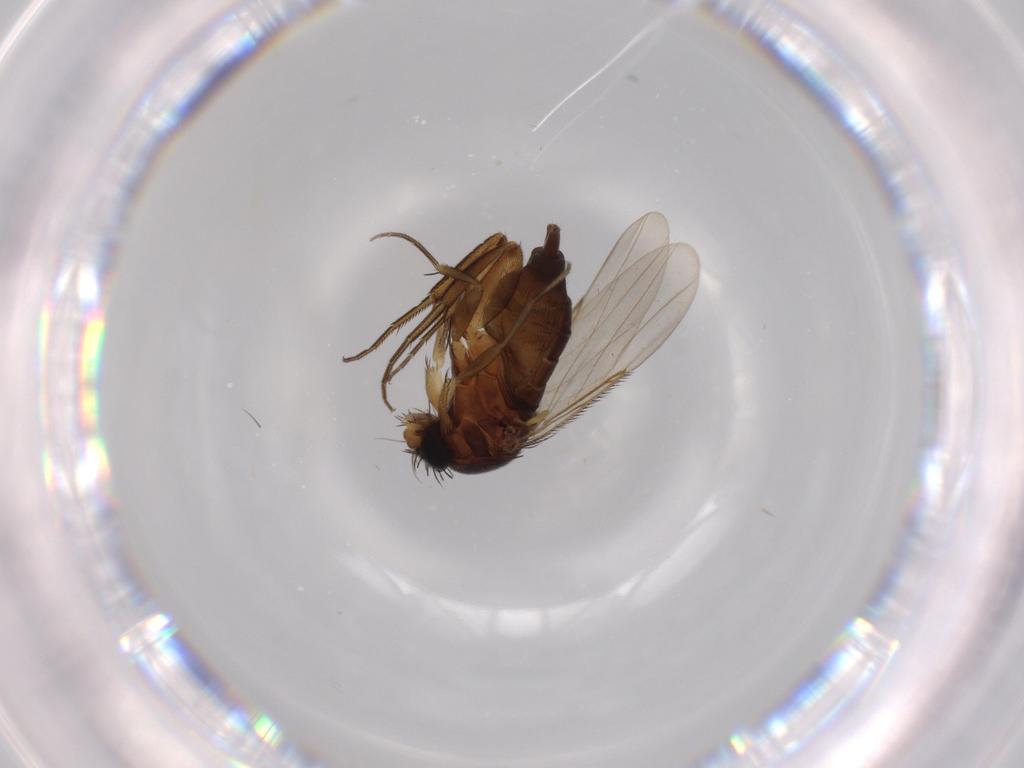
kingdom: Animalia
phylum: Arthropoda
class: Insecta
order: Diptera
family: Phoridae
